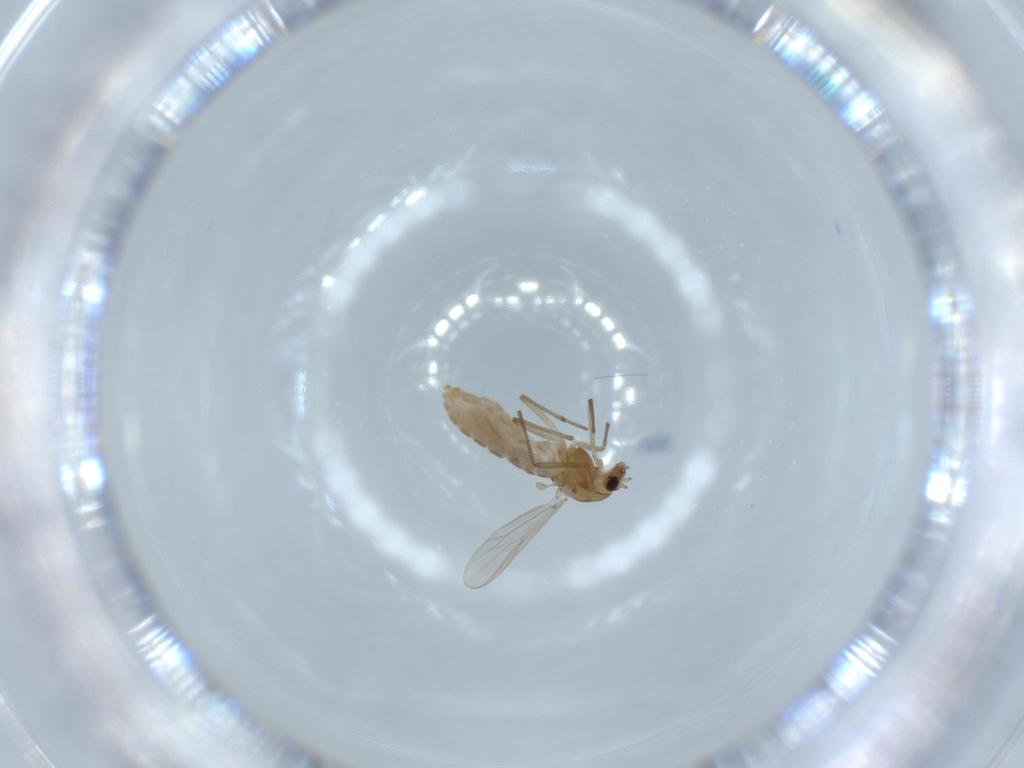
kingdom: Animalia
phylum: Arthropoda
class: Insecta
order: Diptera
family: Chironomidae
